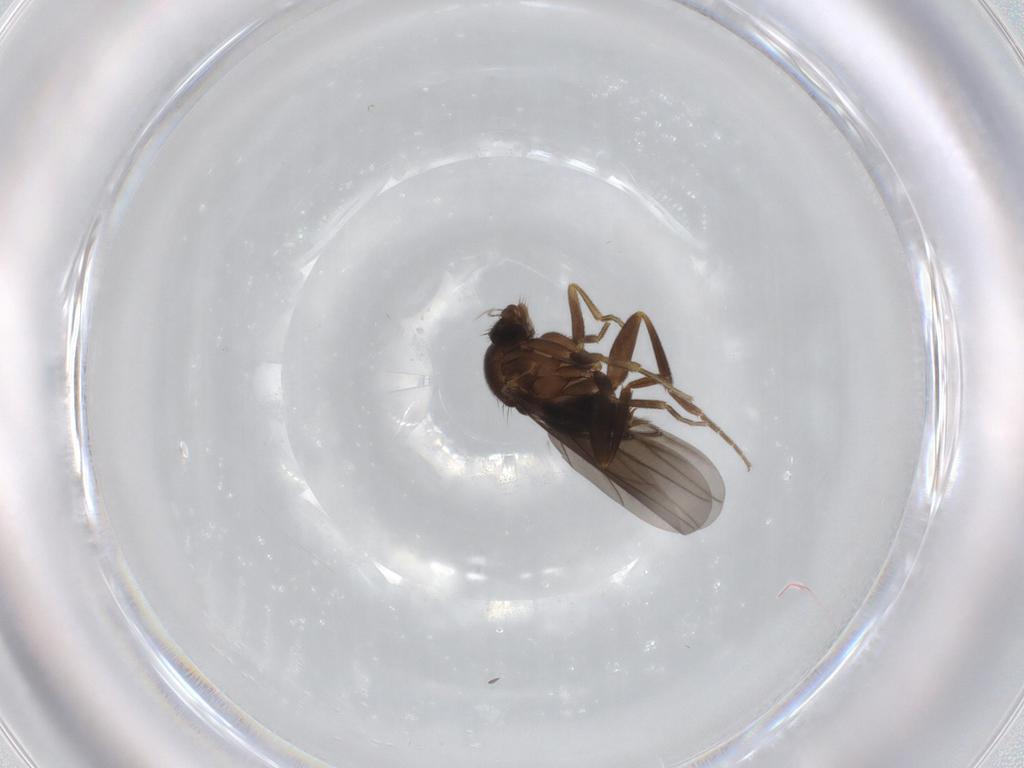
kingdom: Animalia
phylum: Arthropoda
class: Insecta
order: Diptera
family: Phoridae
